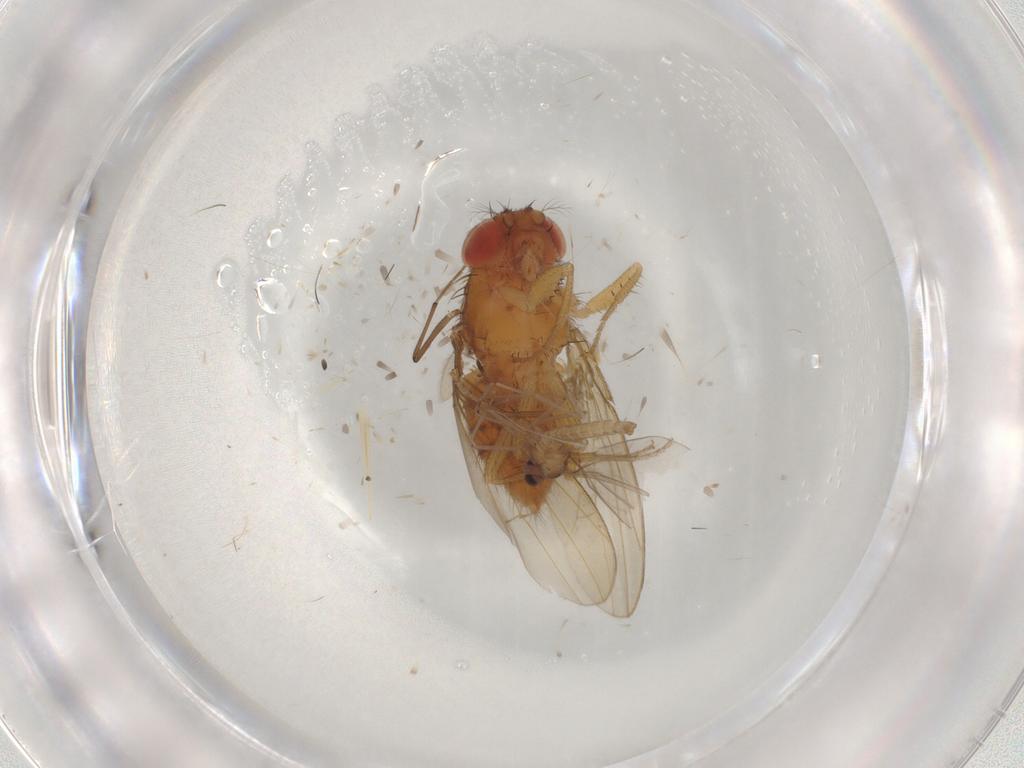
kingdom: Animalia
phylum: Arthropoda
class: Insecta
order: Diptera
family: Drosophilidae
